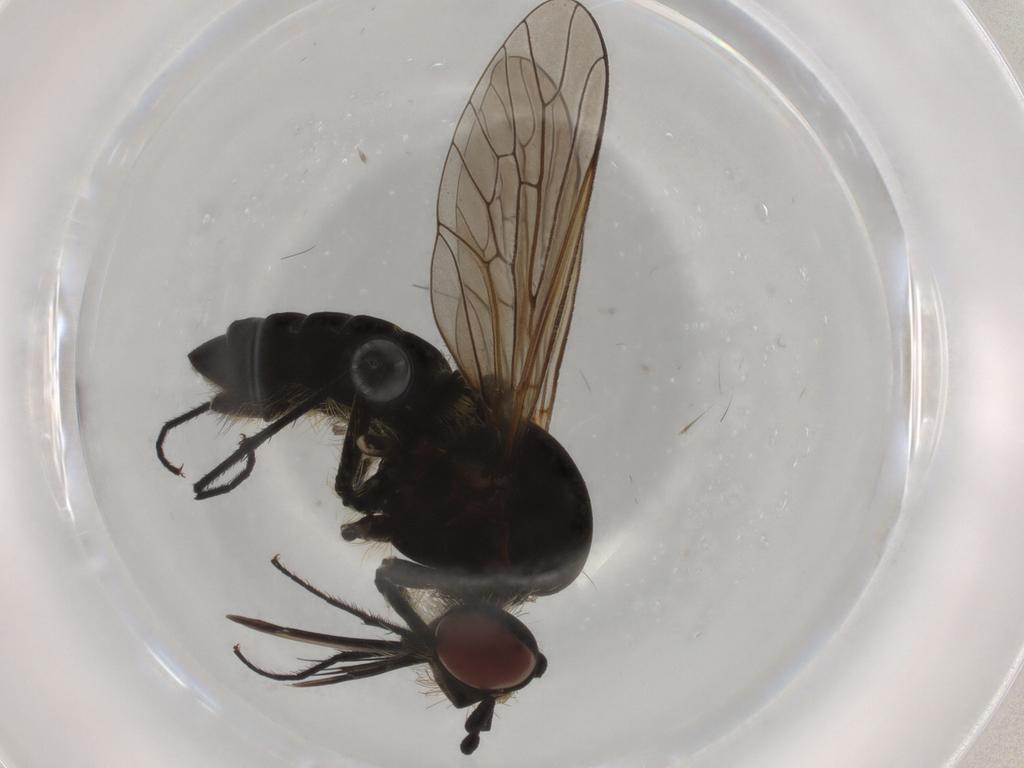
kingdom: Animalia
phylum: Arthropoda
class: Insecta
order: Diptera
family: Bombyliidae
